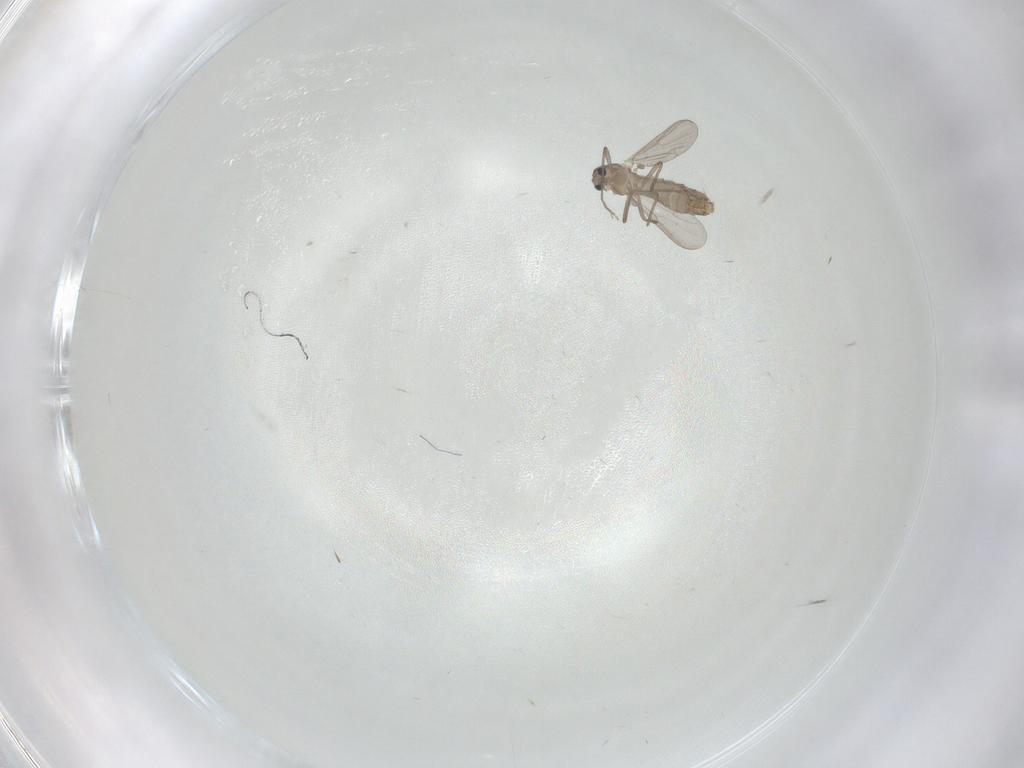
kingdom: Animalia
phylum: Arthropoda
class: Insecta
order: Diptera
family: Chironomidae
